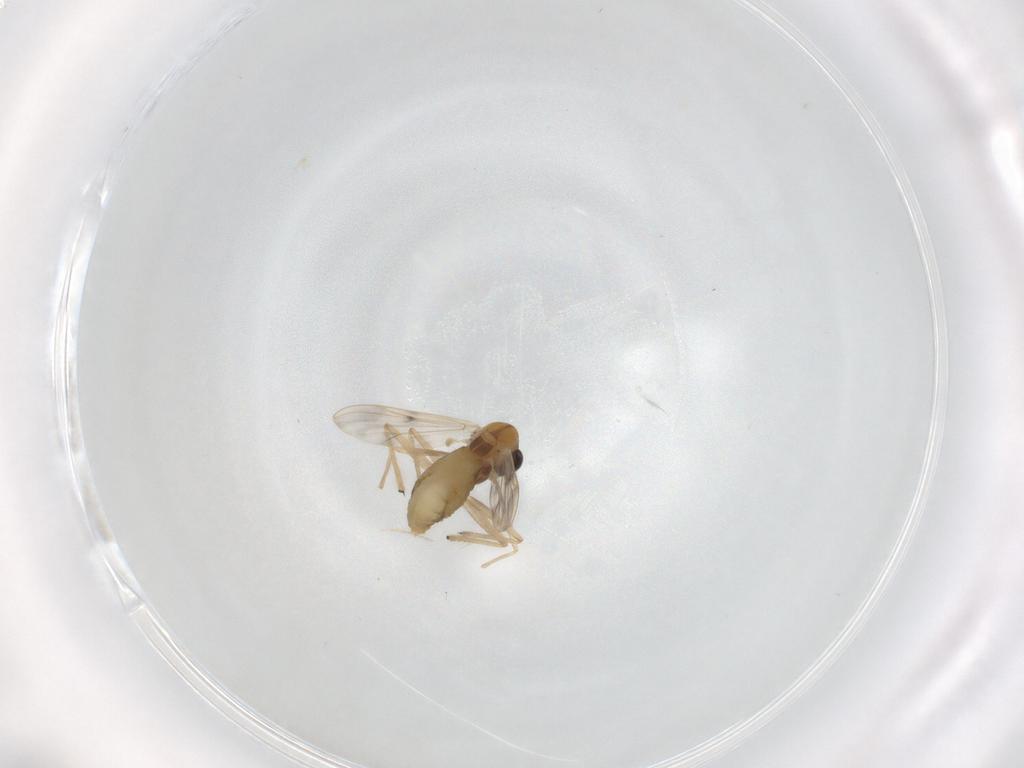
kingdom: Animalia
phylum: Arthropoda
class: Insecta
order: Diptera
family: Chironomidae
